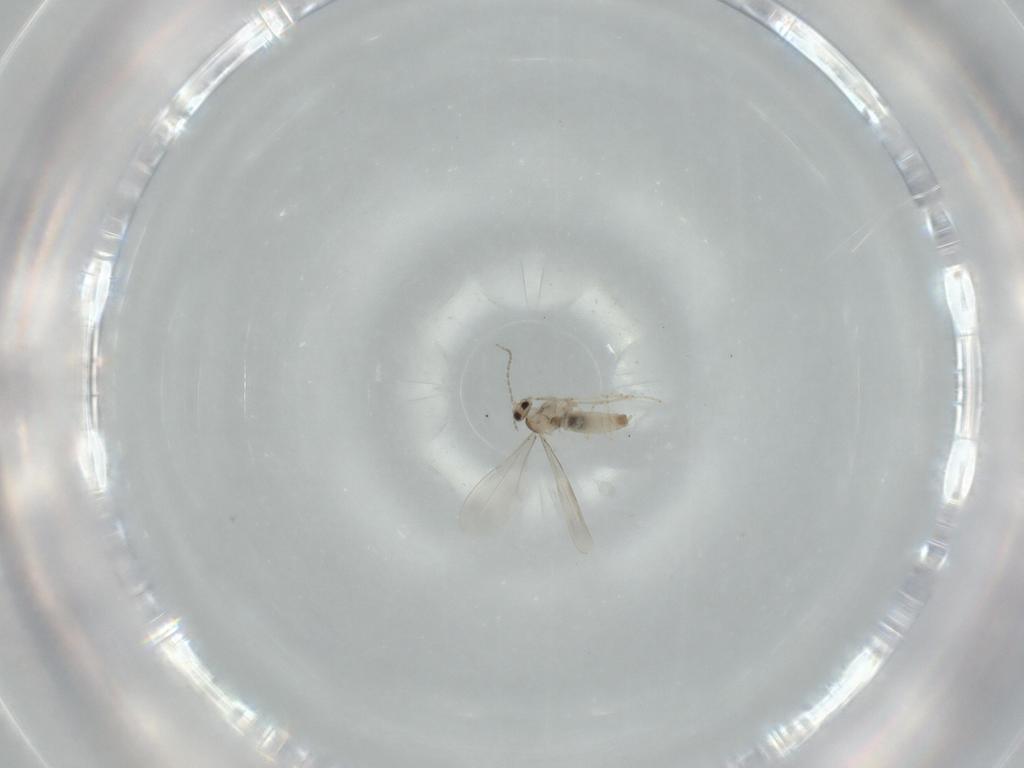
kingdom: Animalia
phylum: Arthropoda
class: Insecta
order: Diptera
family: Cecidomyiidae
